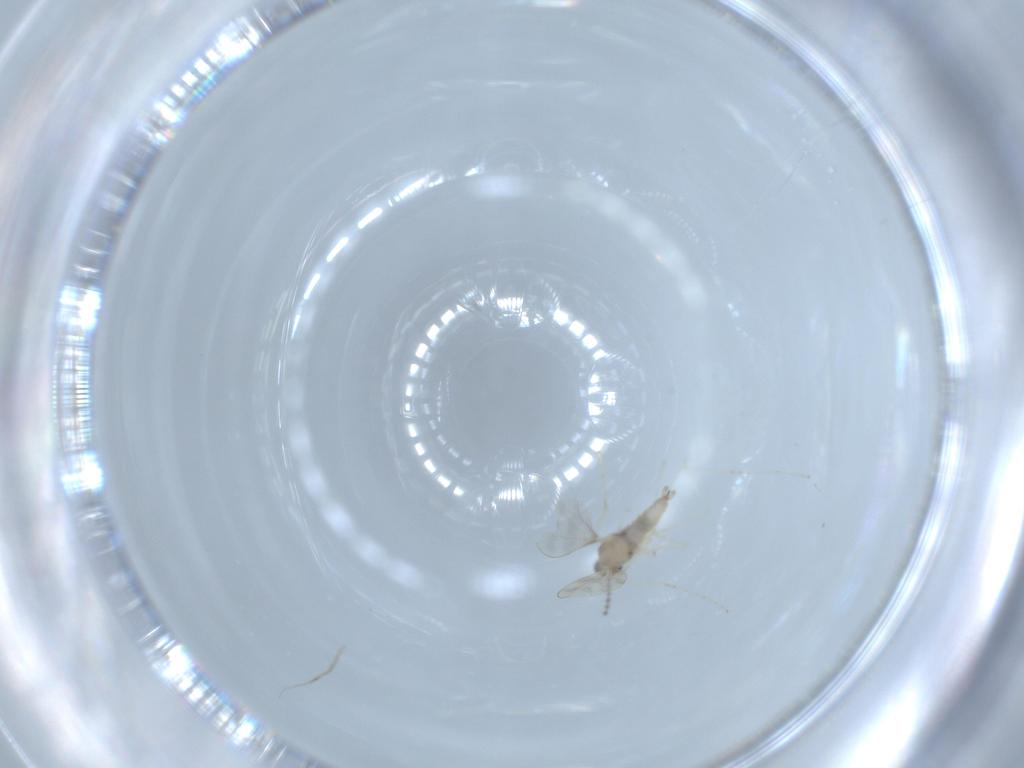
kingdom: Animalia
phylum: Arthropoda
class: Insecta
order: Diptera
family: Cecidomyiidae
